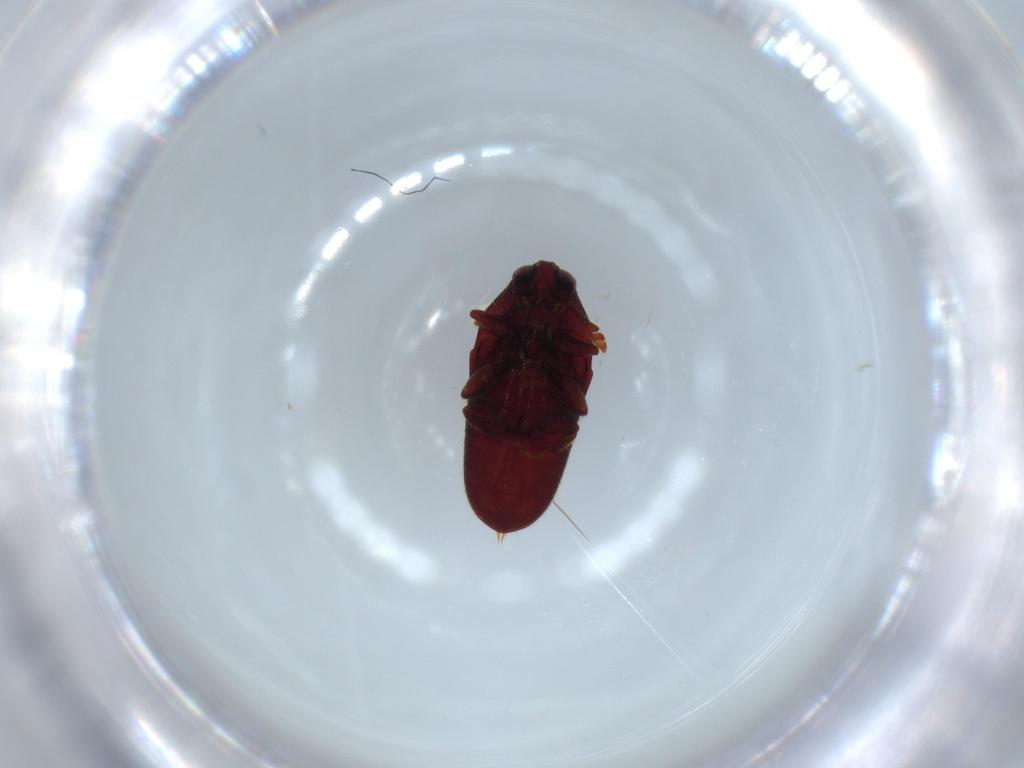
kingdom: Animalia
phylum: Arthropoda
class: Insecta
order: Coleoptera
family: Throscidae
